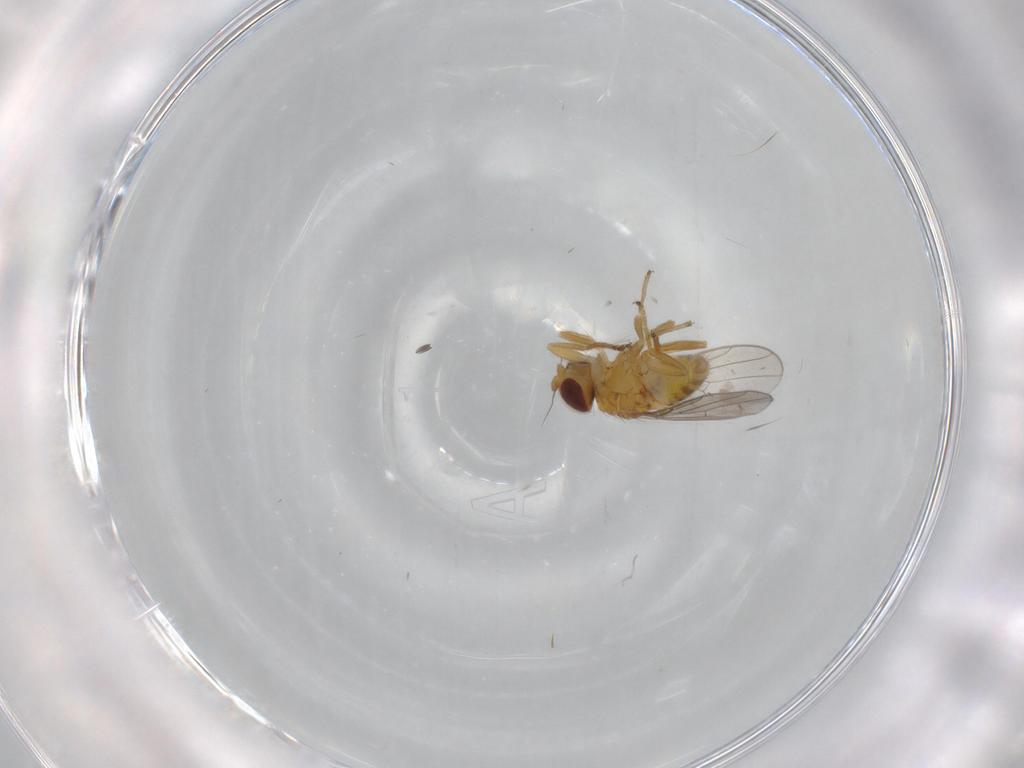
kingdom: Animalia
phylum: Arthropoda
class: Insecta
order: Diptera
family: Chloropidae
